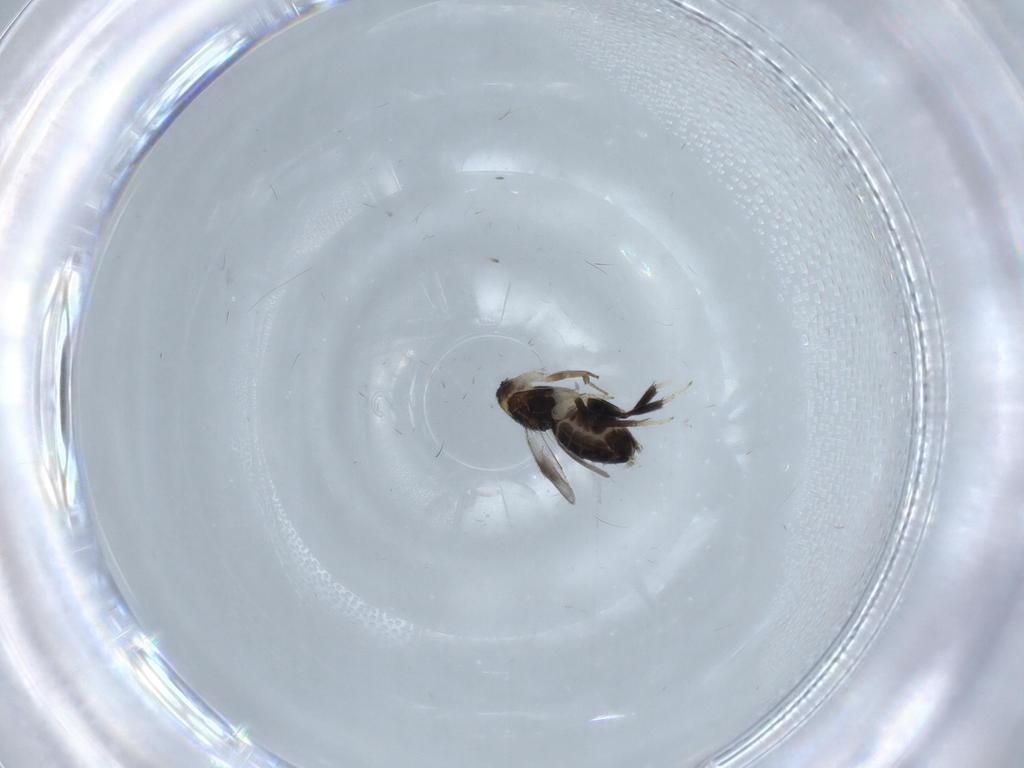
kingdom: Animalia
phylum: Arthropoda
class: Insecta
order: Hymenoptera
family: Aphelinidae
